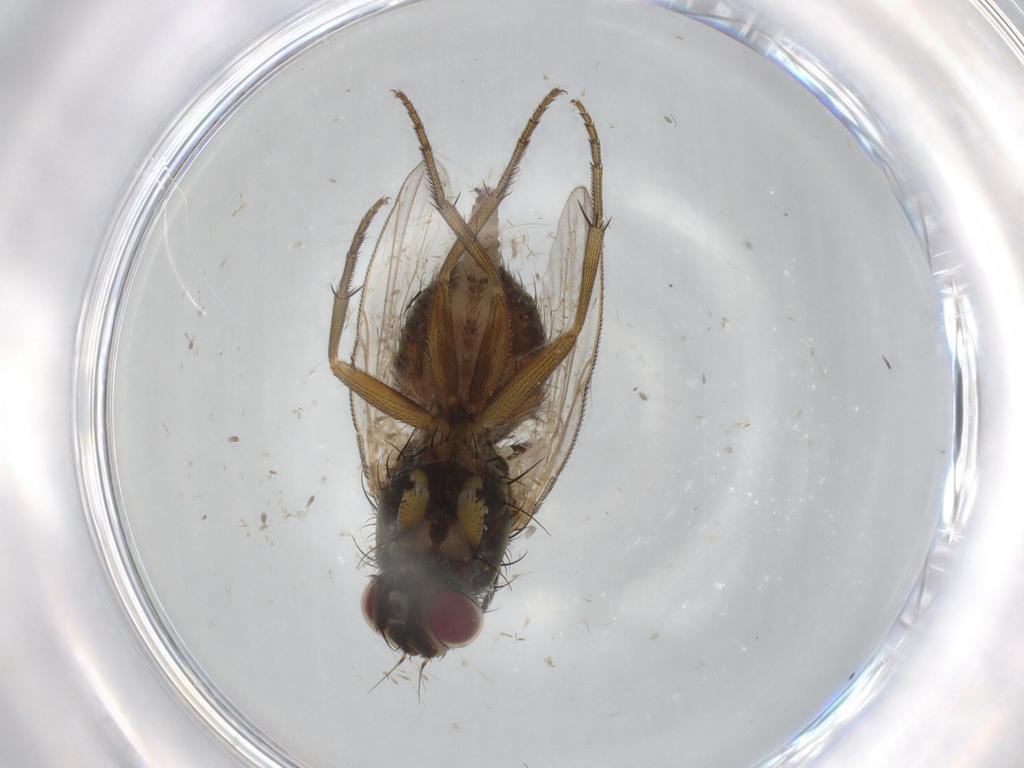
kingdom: Animalia
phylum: Arthropoda
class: Insecta
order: Diptera
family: Muscidae
